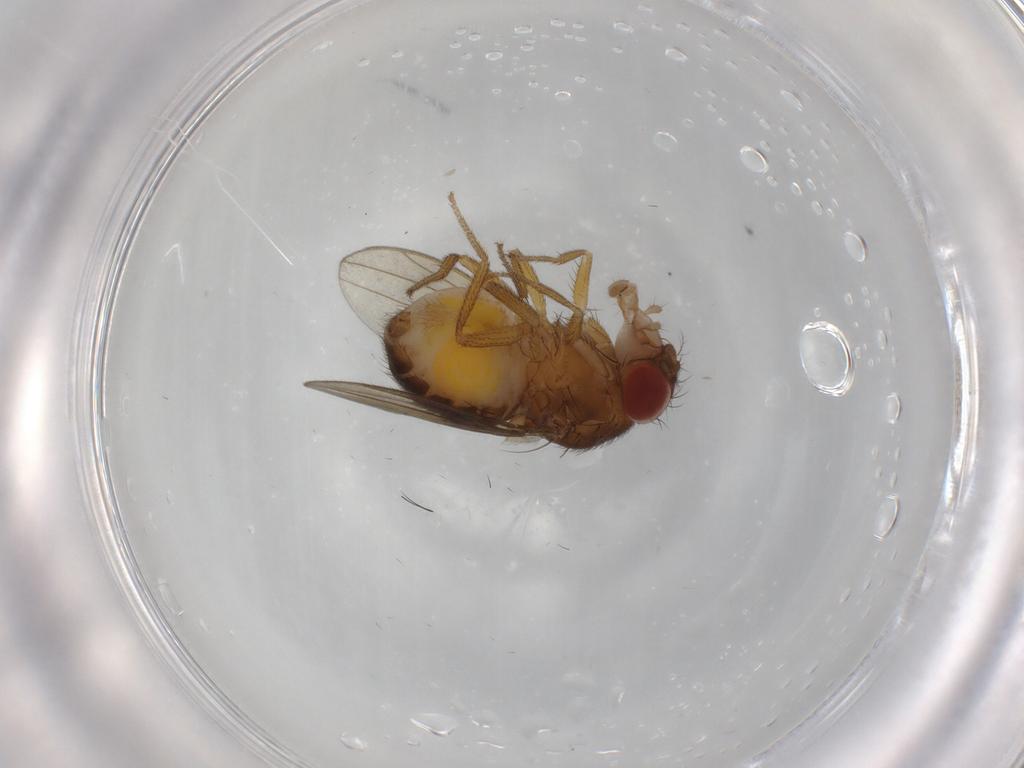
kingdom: Animalia
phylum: Arthropoda
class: Insecta
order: Diptera
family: Drosophilidae
